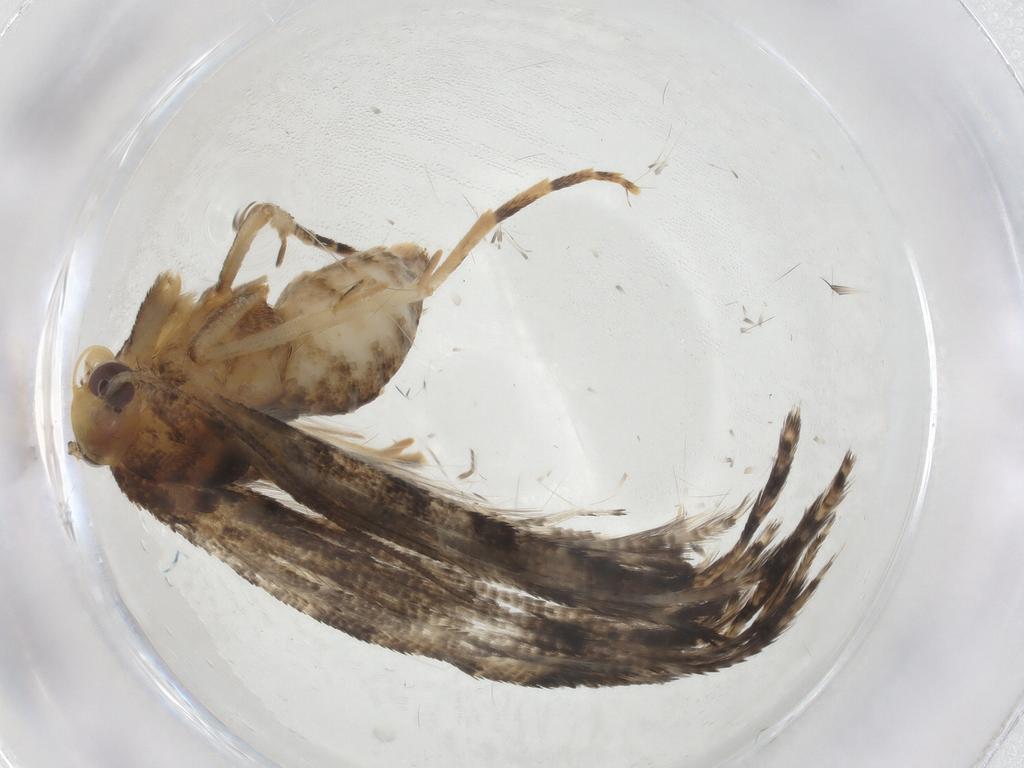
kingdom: Animalia
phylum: Arthropoda
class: Insecta
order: Lepidoptera
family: Alucitidae
